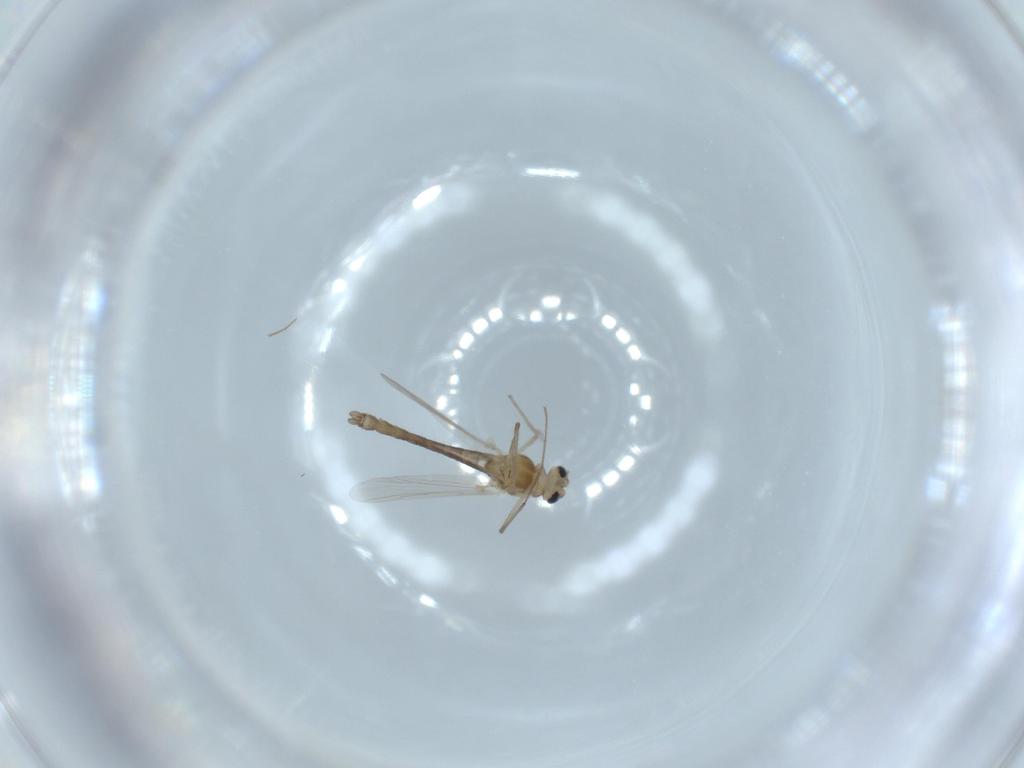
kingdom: Animalia
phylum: Arthropoda
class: Insecta
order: Diptera
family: Chironomidae
